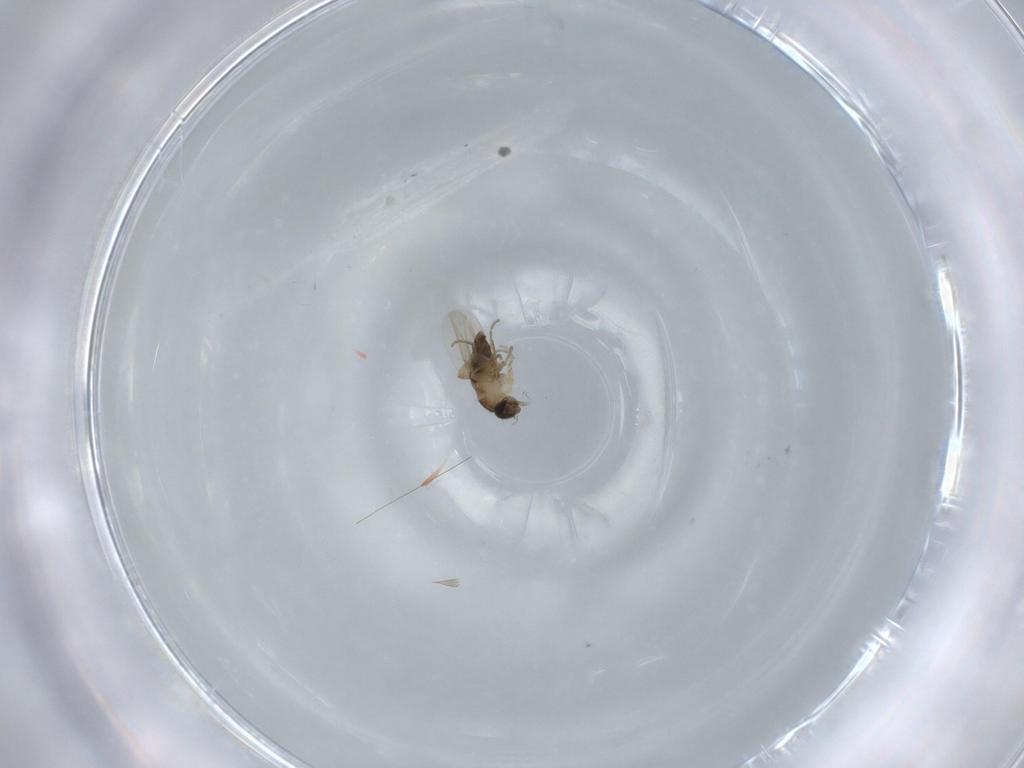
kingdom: Animalia
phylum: Arthropoda
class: Insecta
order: Diptera
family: Phoridae
